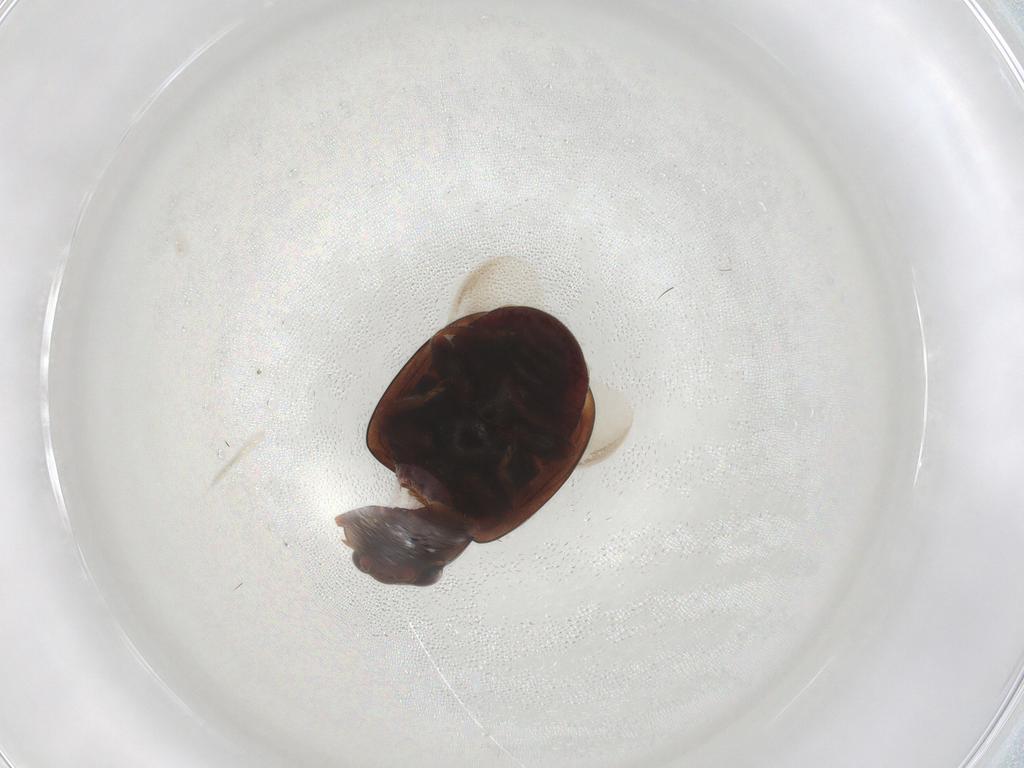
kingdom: Animalia
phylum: Arthropoda
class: Insecta
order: Coleoptera
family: Coccinellidae
